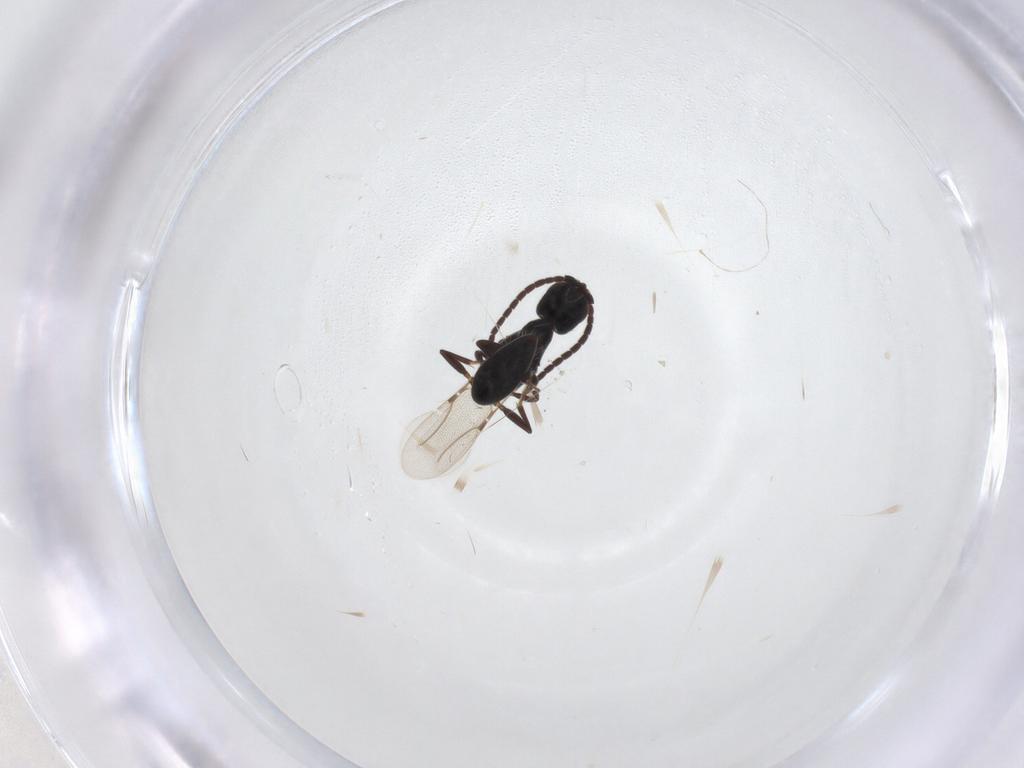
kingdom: Animalia
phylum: Arthropoda
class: Insecta
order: Hymenoptera
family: Bethylidae
